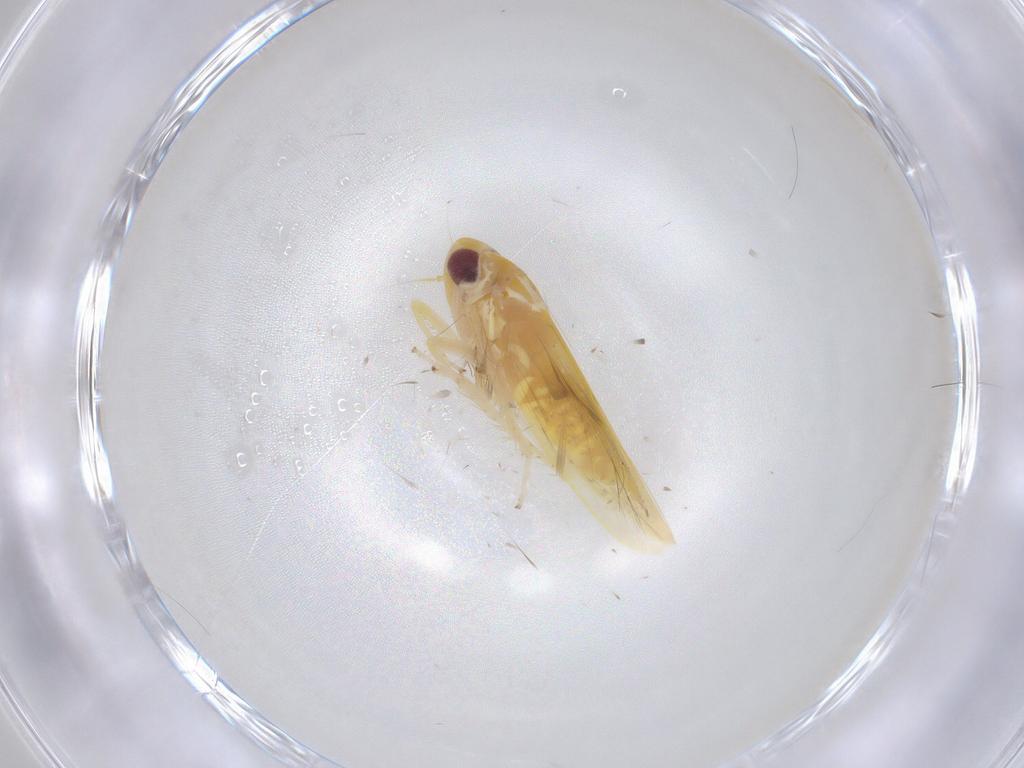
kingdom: Animalia
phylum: Arthropoda
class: Insecta
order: Hemiptera
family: Cicadellidae
